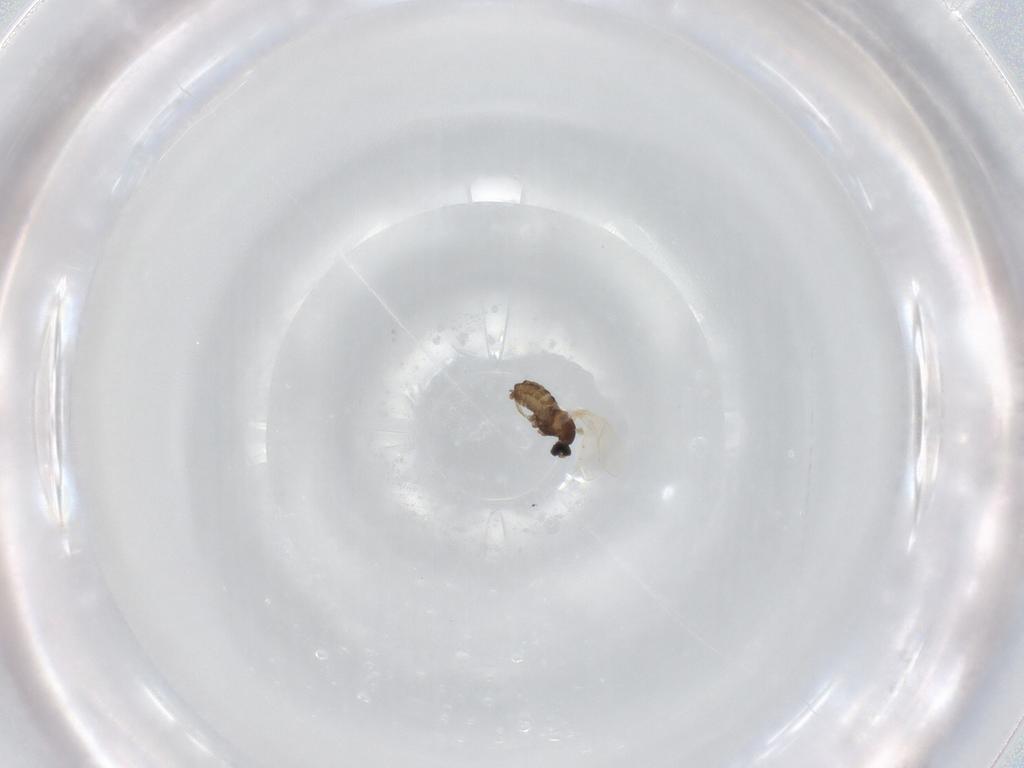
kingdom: Animalia
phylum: Arthropoda
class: Insecta
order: Diptera
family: Cecidomyiidae
